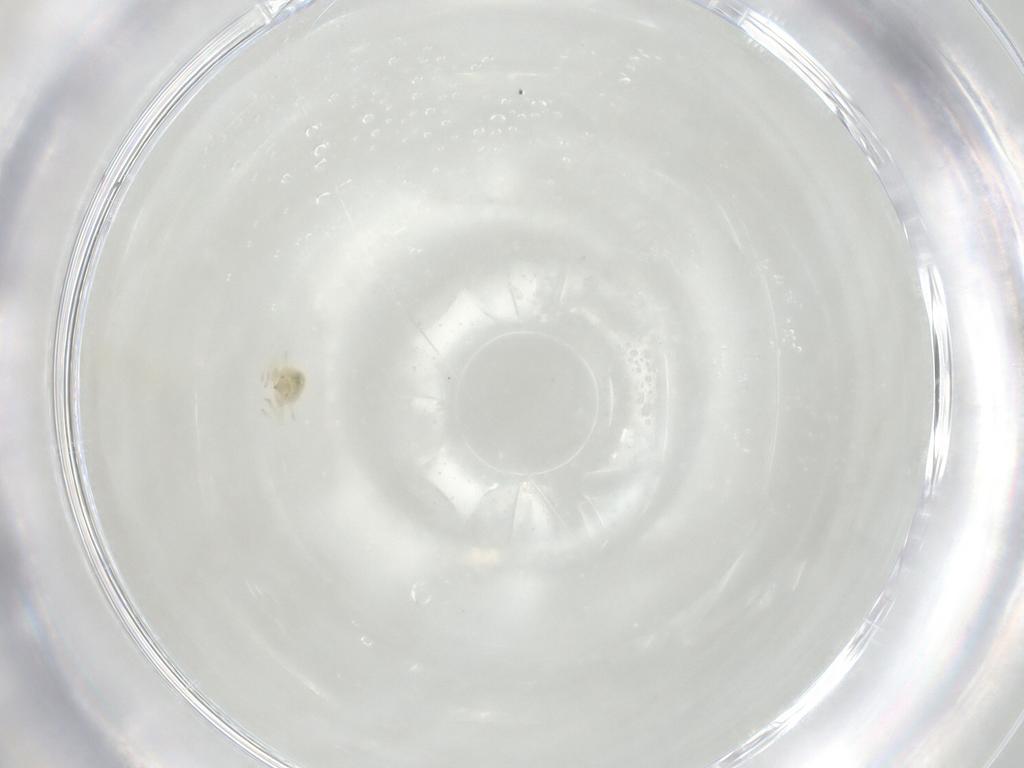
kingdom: Animalia
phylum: Arthropoda
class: Insecta
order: Neuroptera
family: Coniopterygidae
